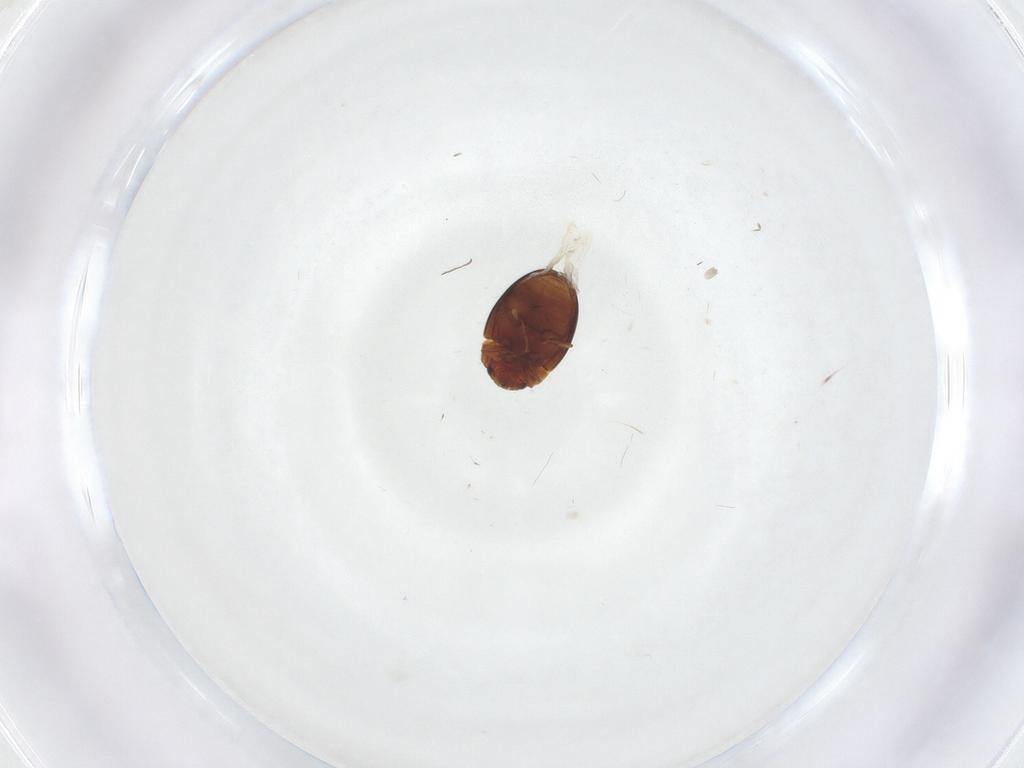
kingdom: Animalia
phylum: Arthropoda
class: Insecta
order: Coleoptera
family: Eupsilobiidae
